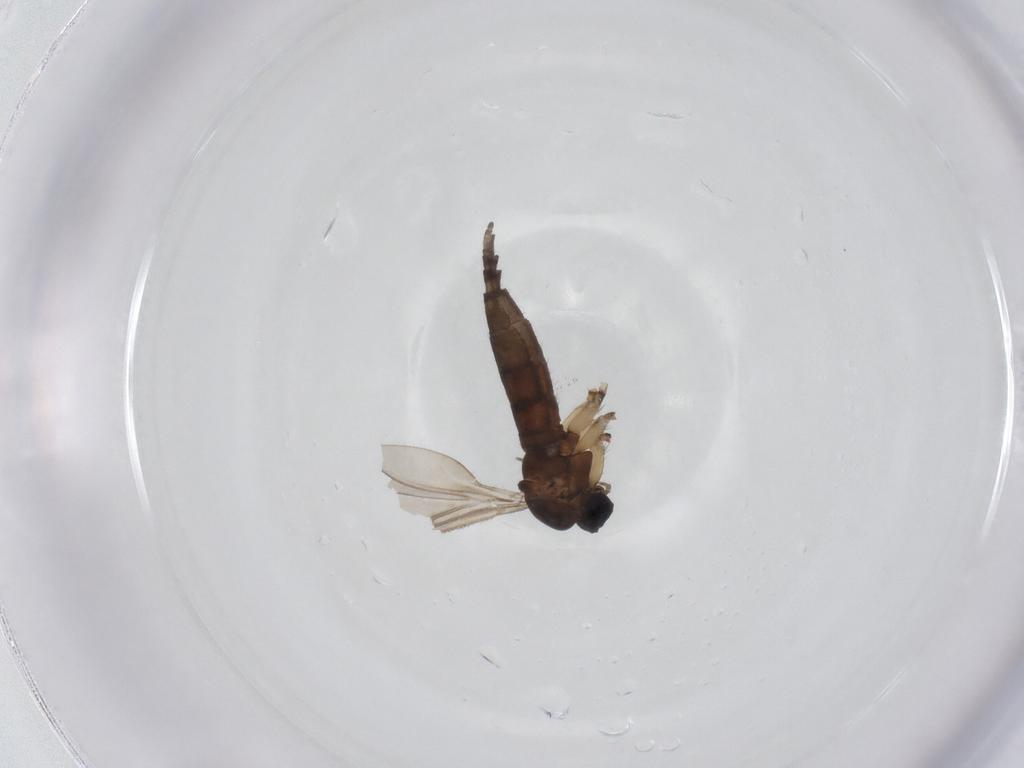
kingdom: Animalia
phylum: Arthropoda
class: Insecta
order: Diptera
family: Sciaridae
